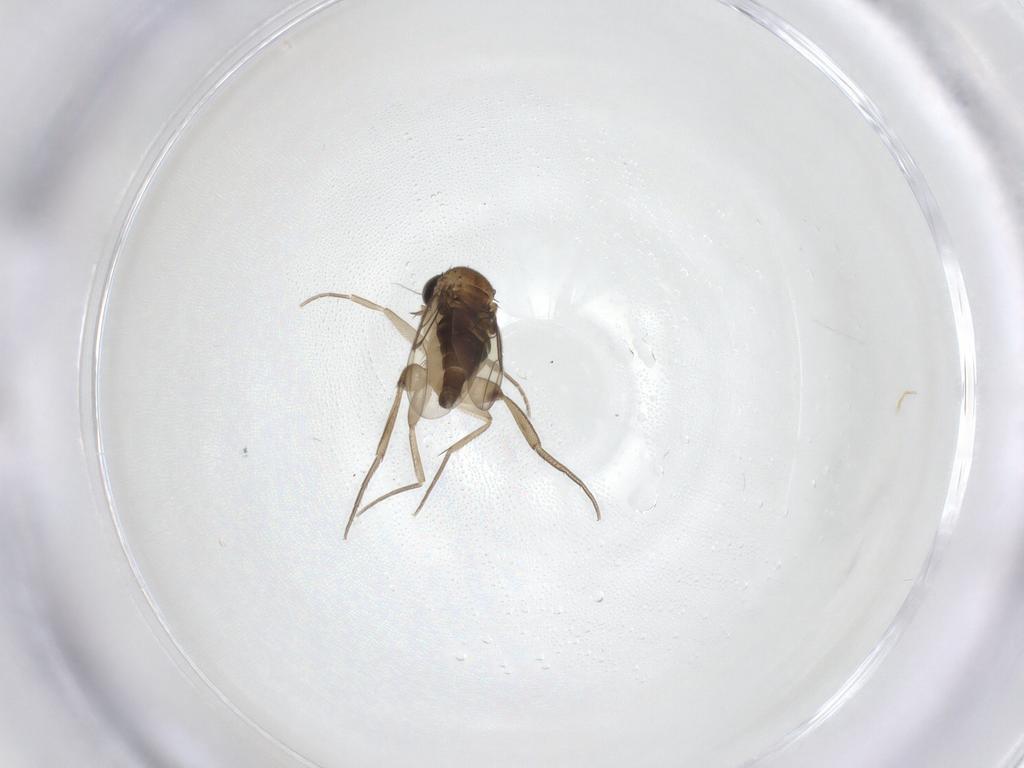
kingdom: Animalia
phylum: Arthropoda
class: Insecta
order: Diptera
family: Phoridae
